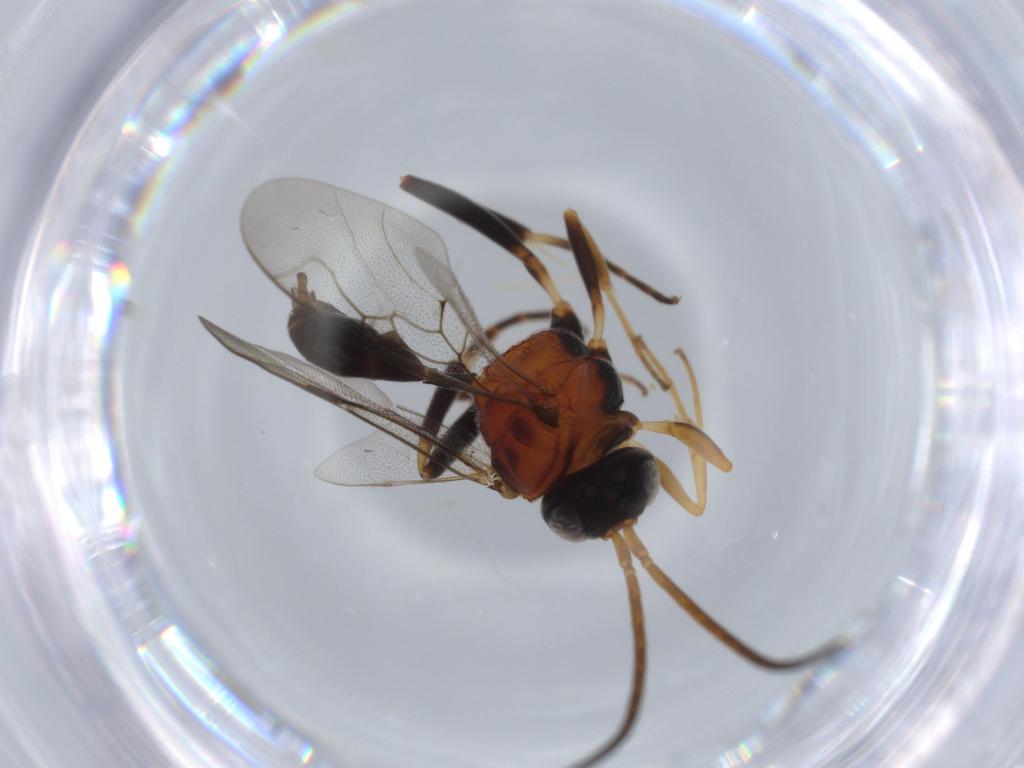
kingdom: Animalia
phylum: Arthropoda
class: Insecta
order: Hymenoptera
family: Evaniidae
